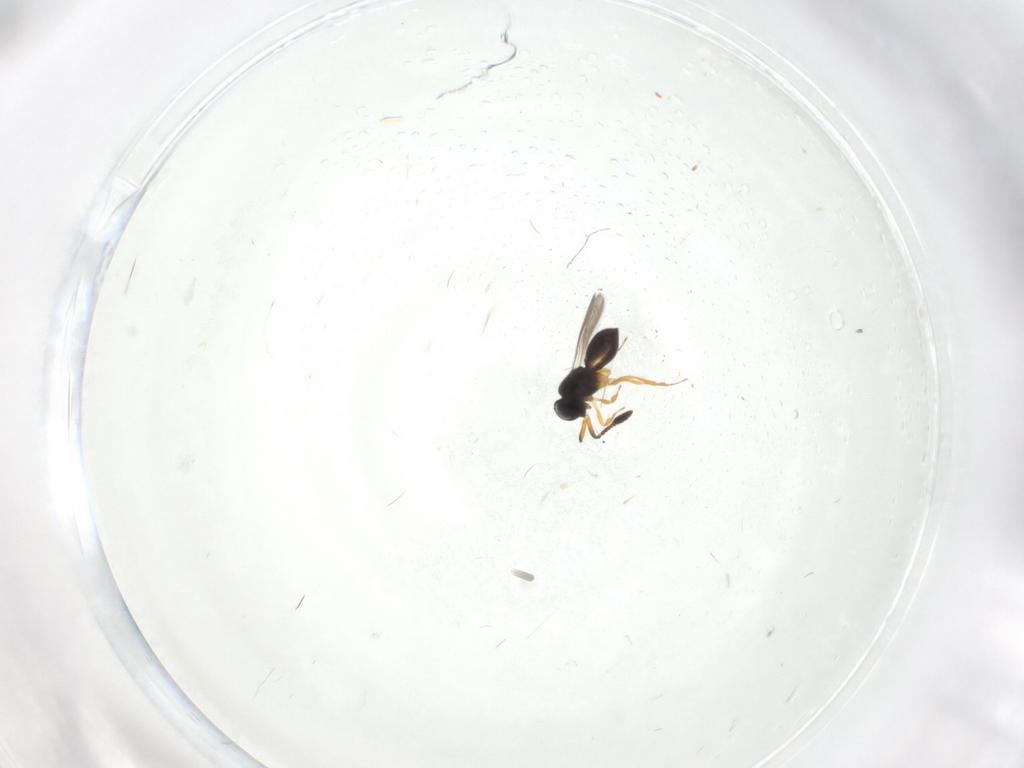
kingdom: Animalia
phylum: Arthropoda
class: Insecta
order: Hymenoptera
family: Scelionidae
